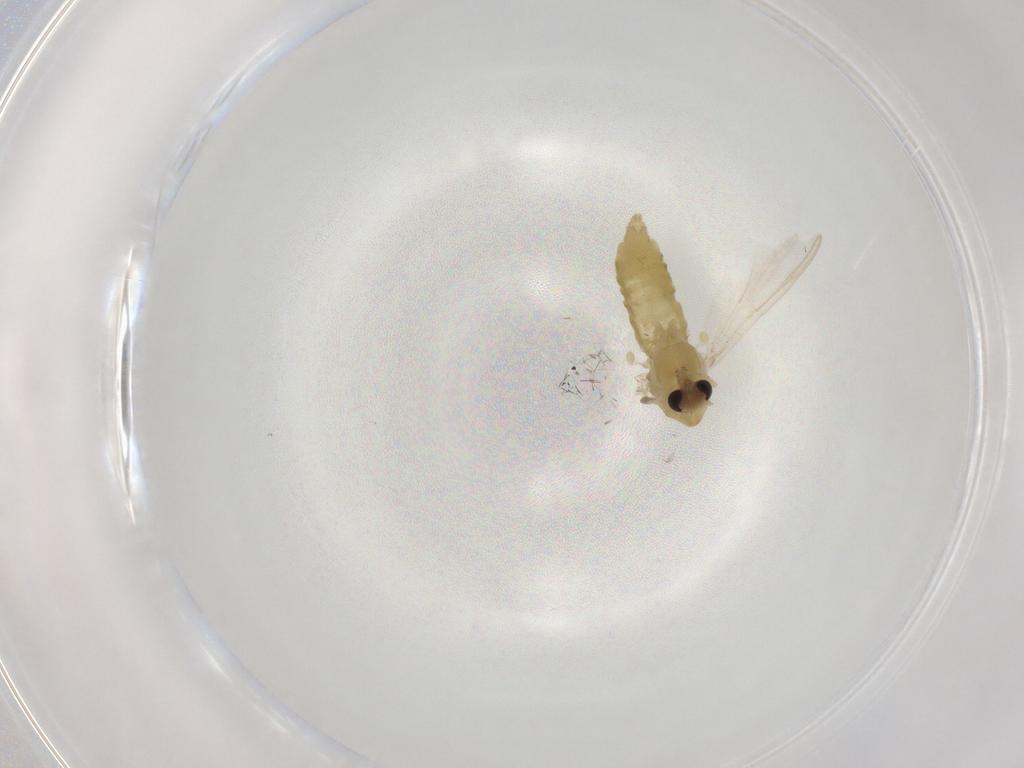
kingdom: Animalia
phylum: Arthropoda
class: Insecta
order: Diptera
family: Chironomidae
